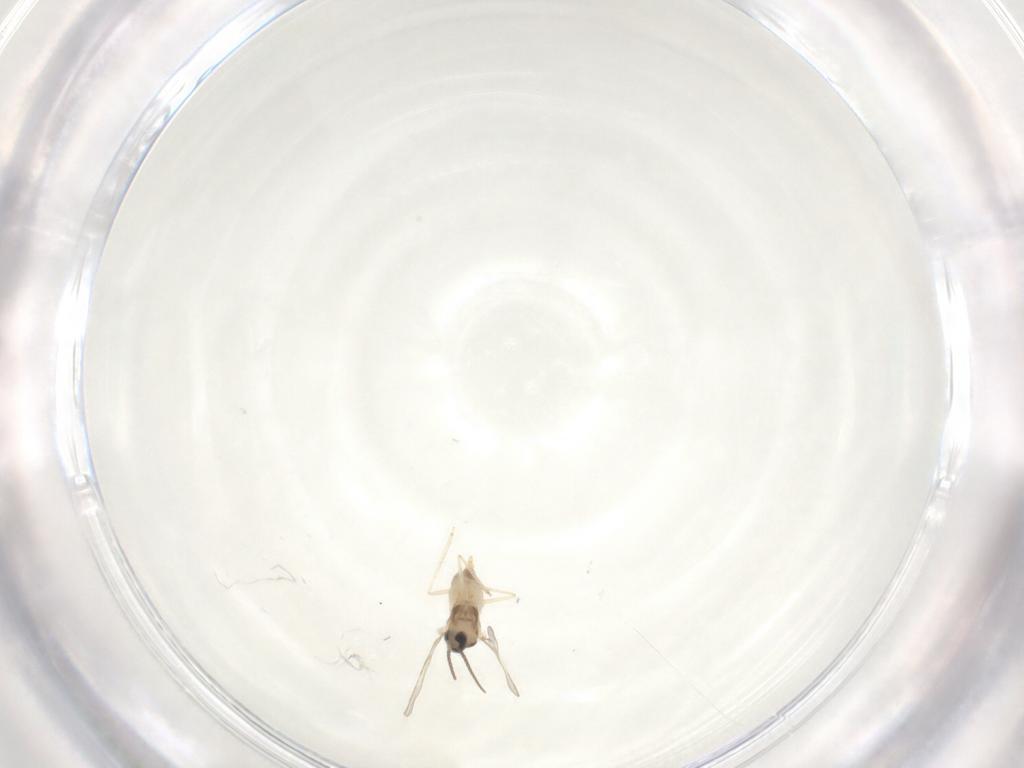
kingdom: Animalia
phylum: Arthropoda
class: Insecta
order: Diptera
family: Cecidomyiidae
